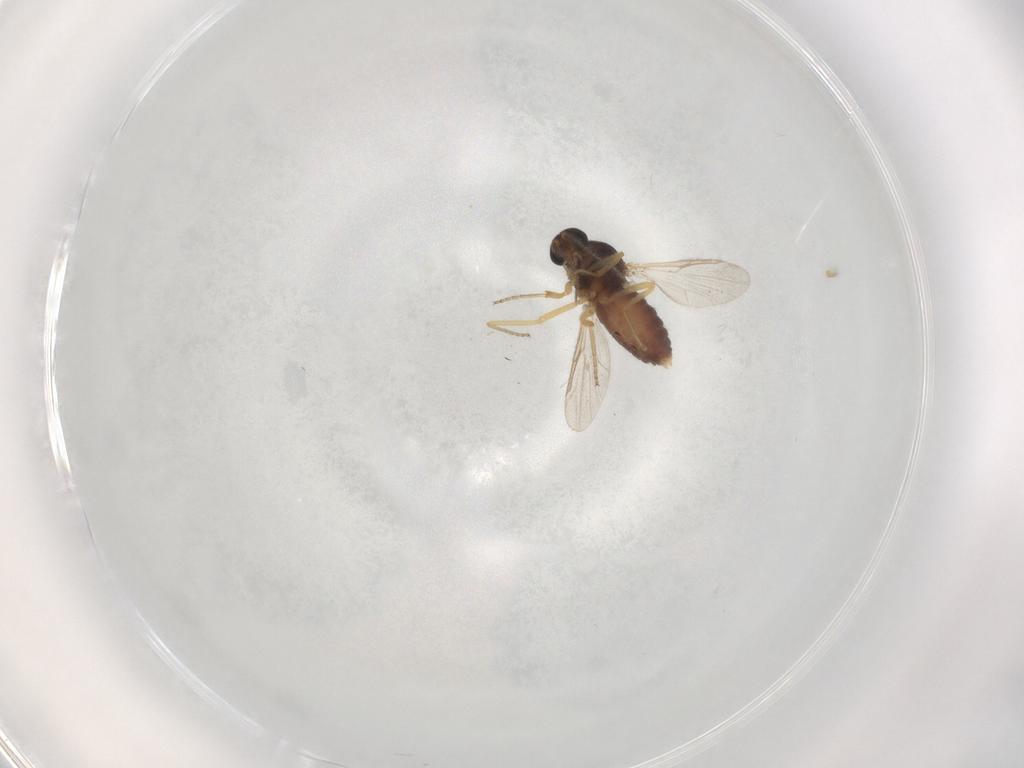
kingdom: Animalia
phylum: Arthropoda
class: Insecta
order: Diptera
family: Ceratopogonidae
